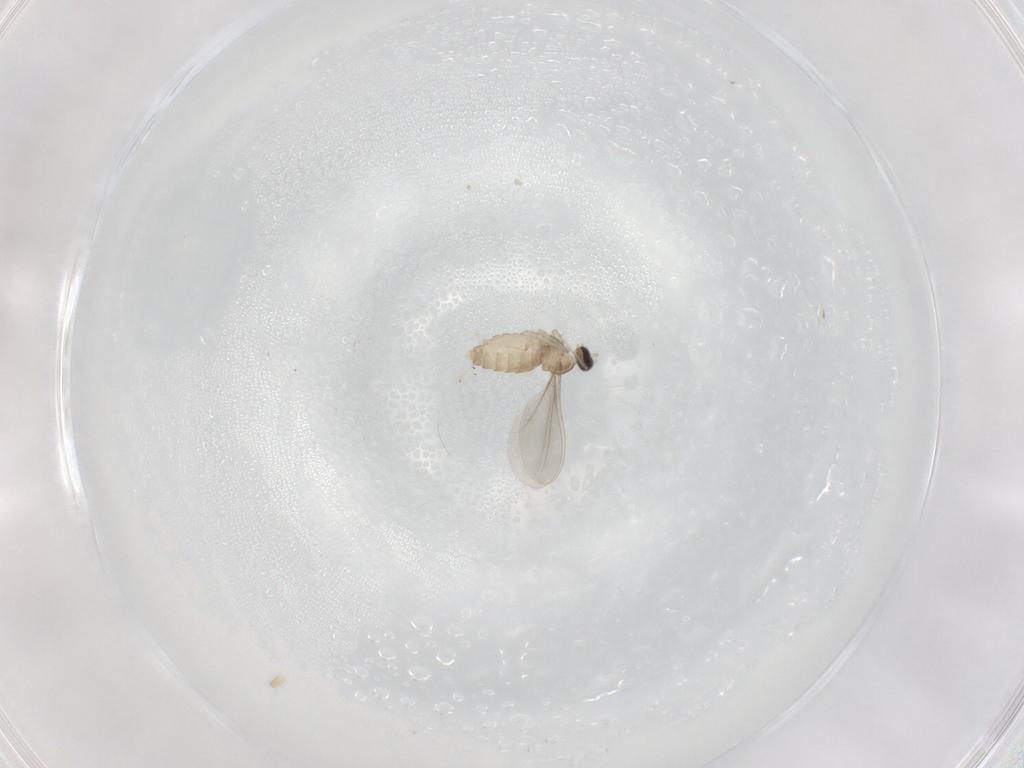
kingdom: Animalia
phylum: Arthropoda
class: Insecta
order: Diptera
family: Cecidomyiidae
